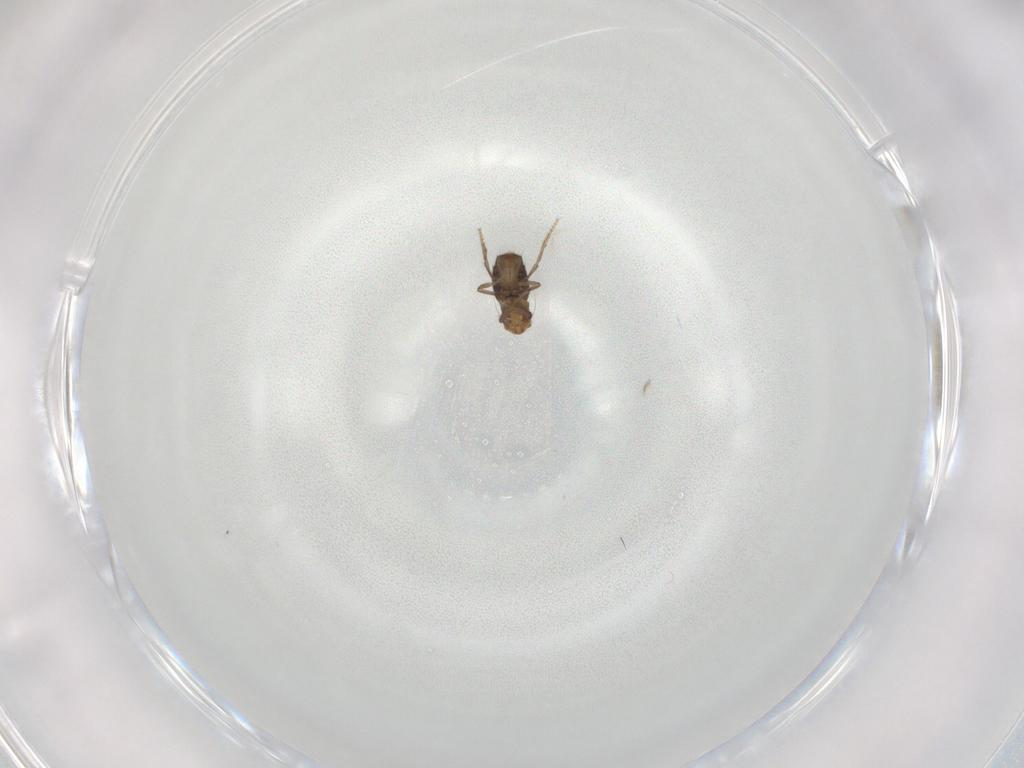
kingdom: Animalia
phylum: Arthropoda
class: Insecta
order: Diptera
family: Phoridae
